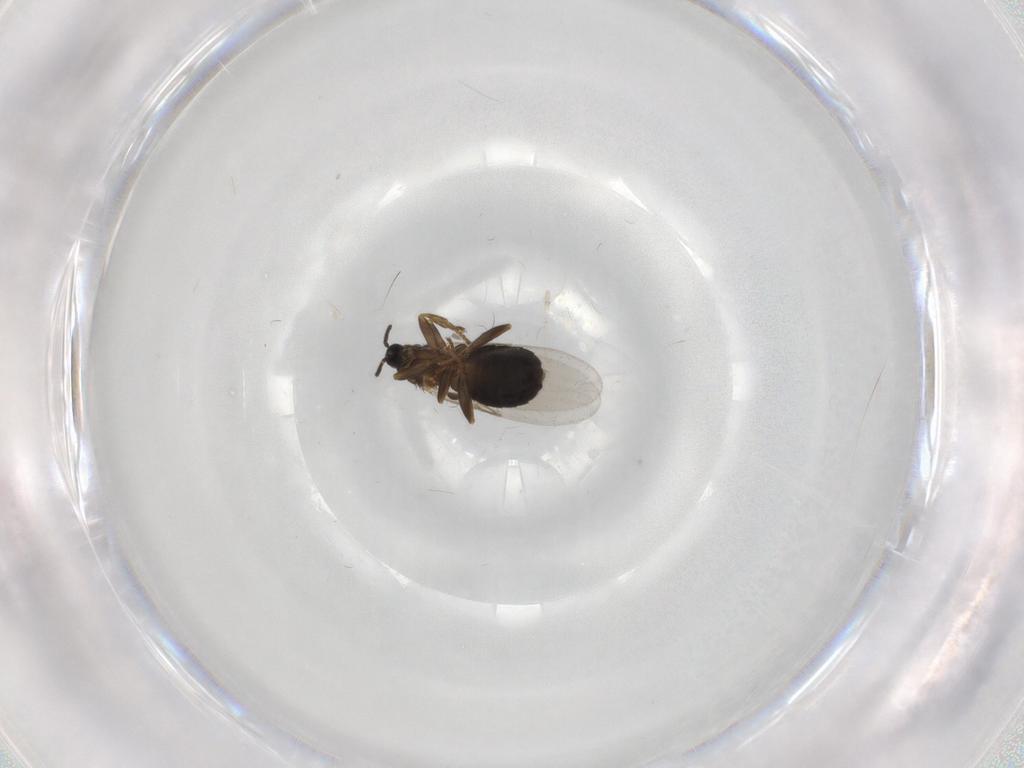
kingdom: Animalia
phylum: Arthropoda
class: Insecta
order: Diptera
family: Scatopsidae
